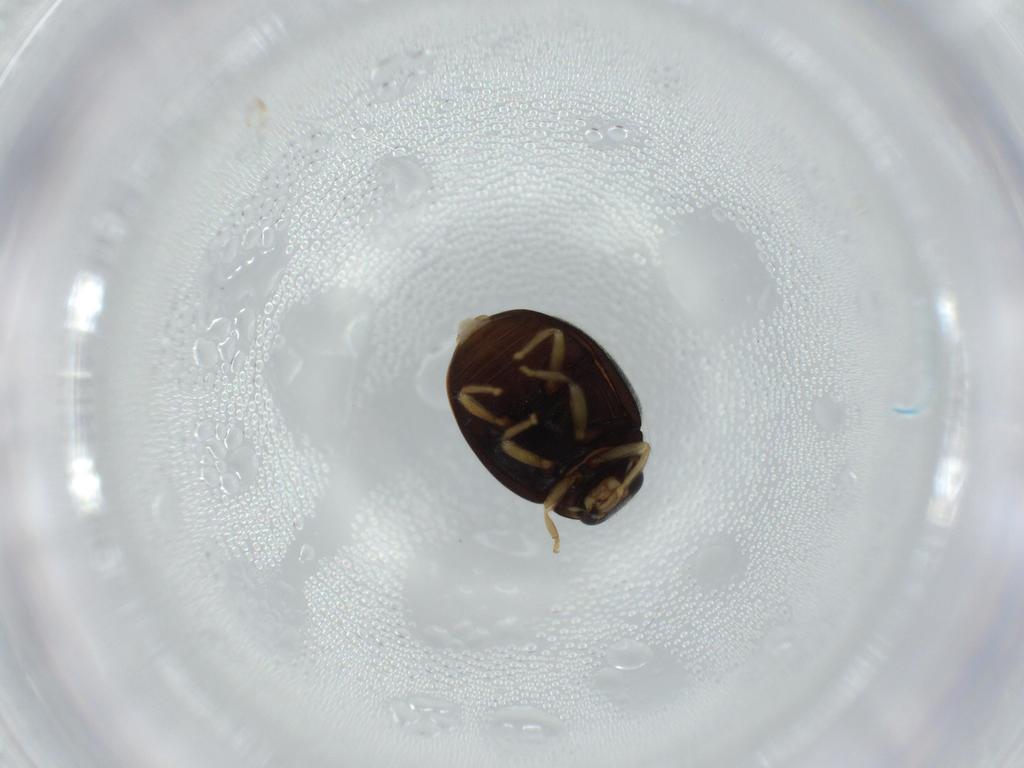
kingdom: Animalia
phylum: Arthropoda
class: Insecta
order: Coleoptera
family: Coccinellidae
